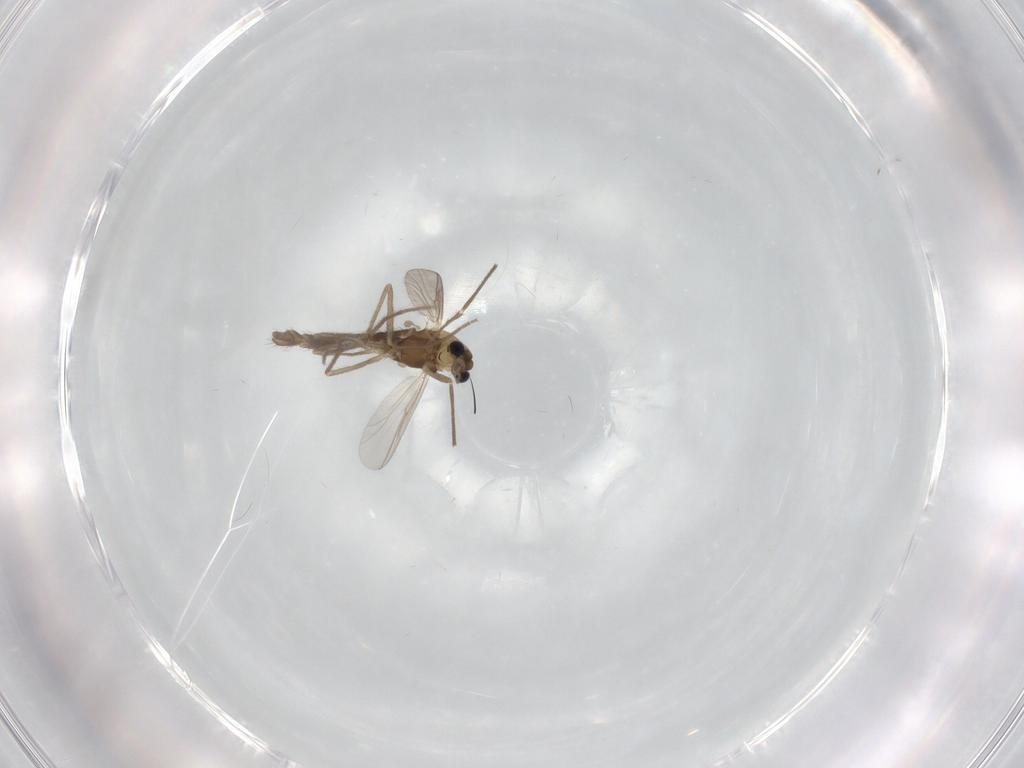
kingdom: Animalia
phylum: Arthropoda
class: Insecta
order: Diptera
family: Chironomidae
